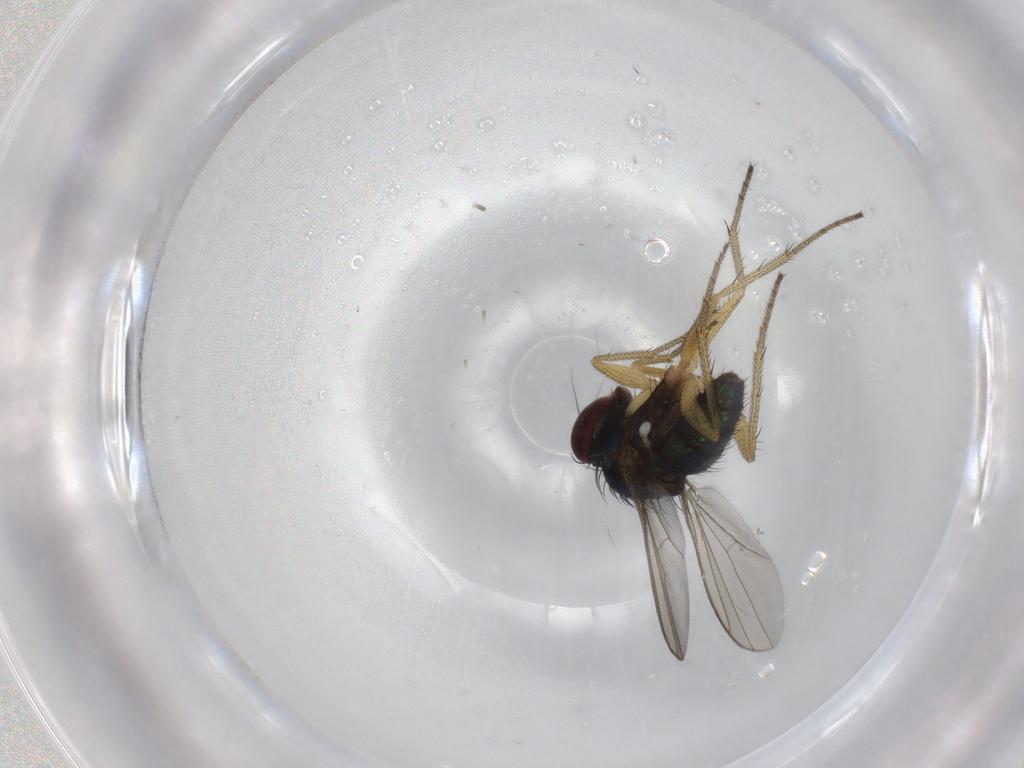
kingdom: Animalia
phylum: Arthropoda
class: Insecta
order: Diptera
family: Dolichopodidae
